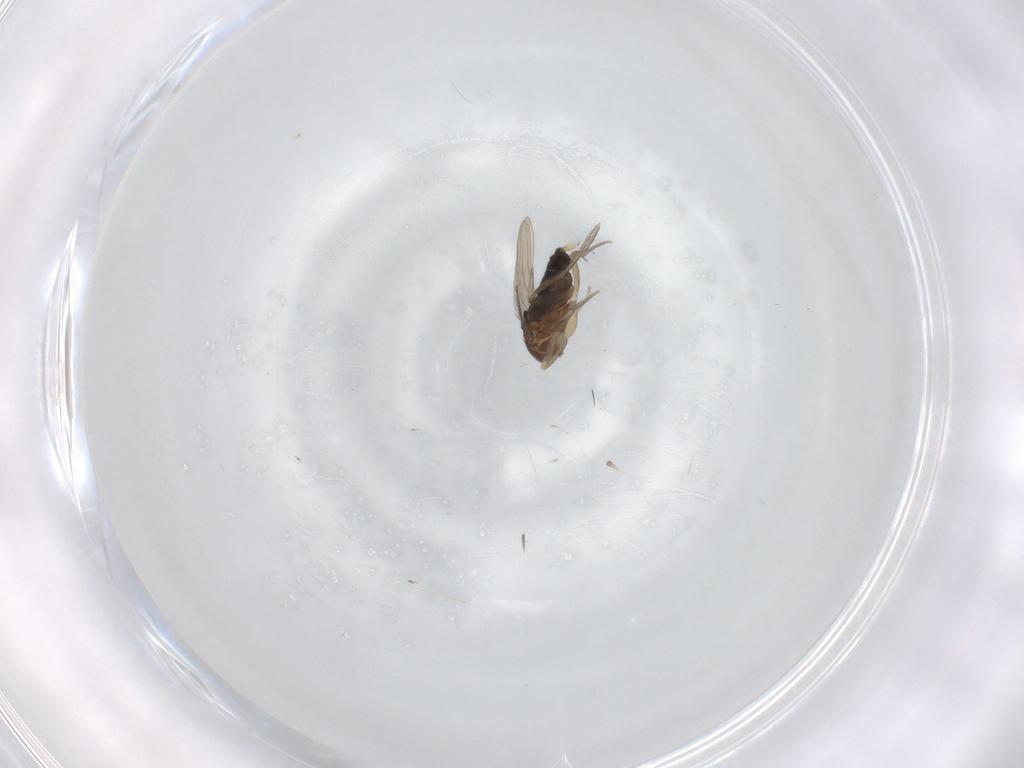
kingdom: Animalia
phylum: Arthropoda
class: Insecta
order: Diptera
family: Phoridae
